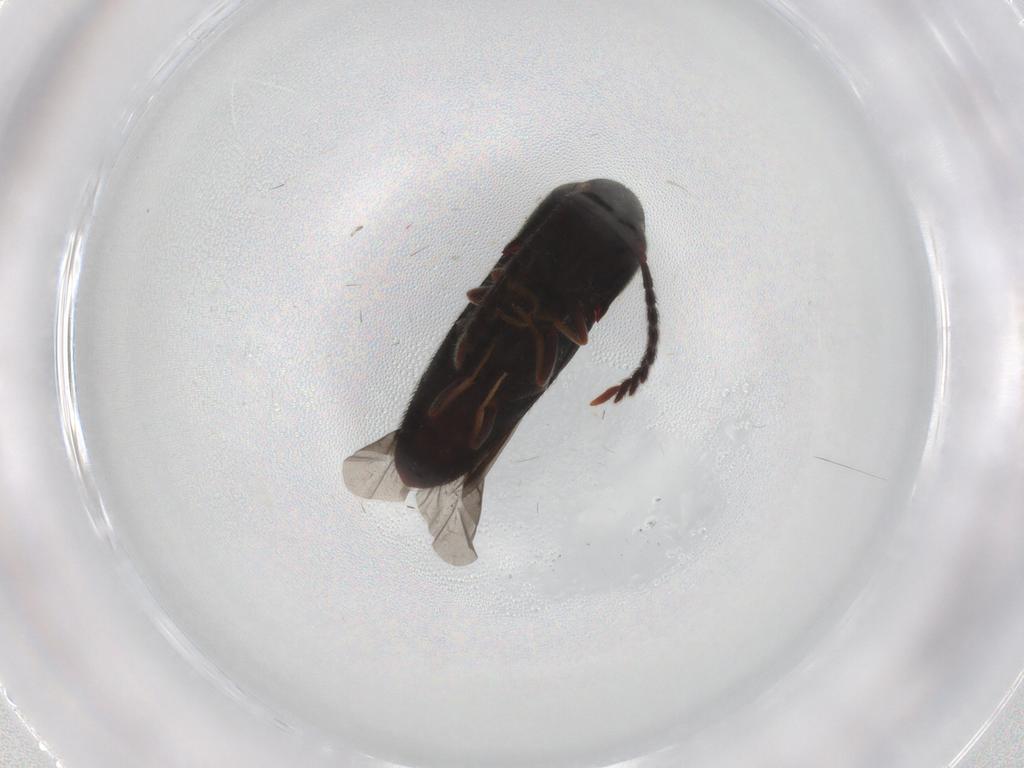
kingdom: Animalia
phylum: Arthropoda
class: Insecta
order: Coleoptera
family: Eucnemidae
